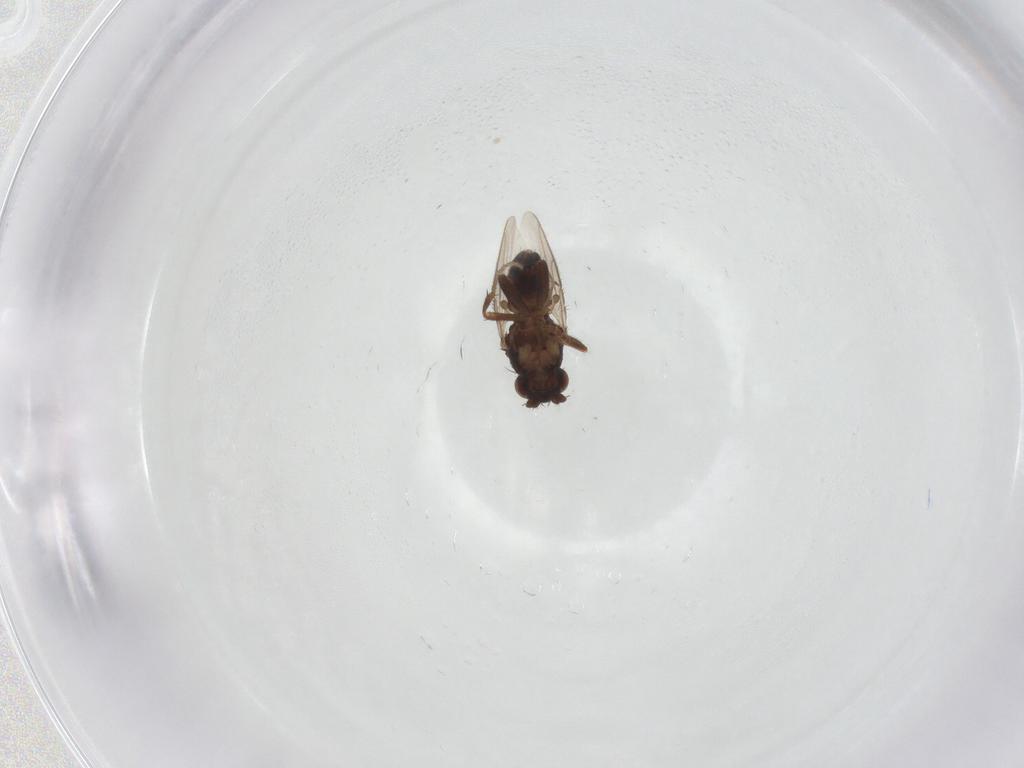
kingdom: Animalia
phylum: Arthropoda
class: Insecta
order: Diptera
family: Sphaeroceridae
